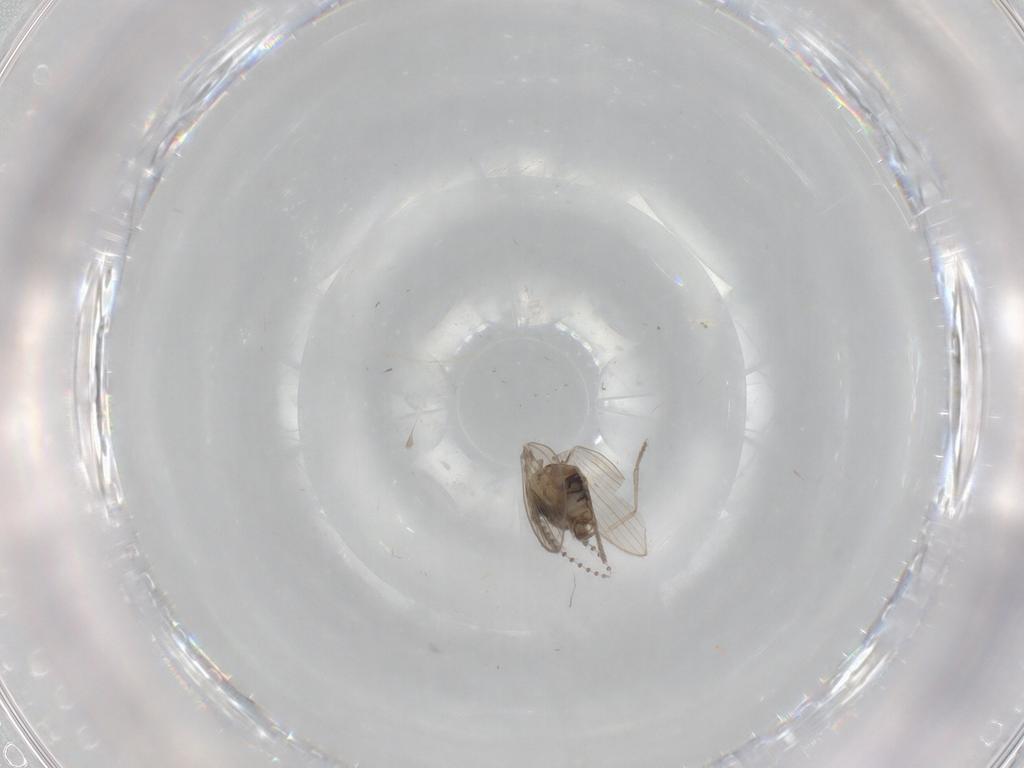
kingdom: Animalia
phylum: Arthropoda
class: Insecta
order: Diptera
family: Psychodidae
